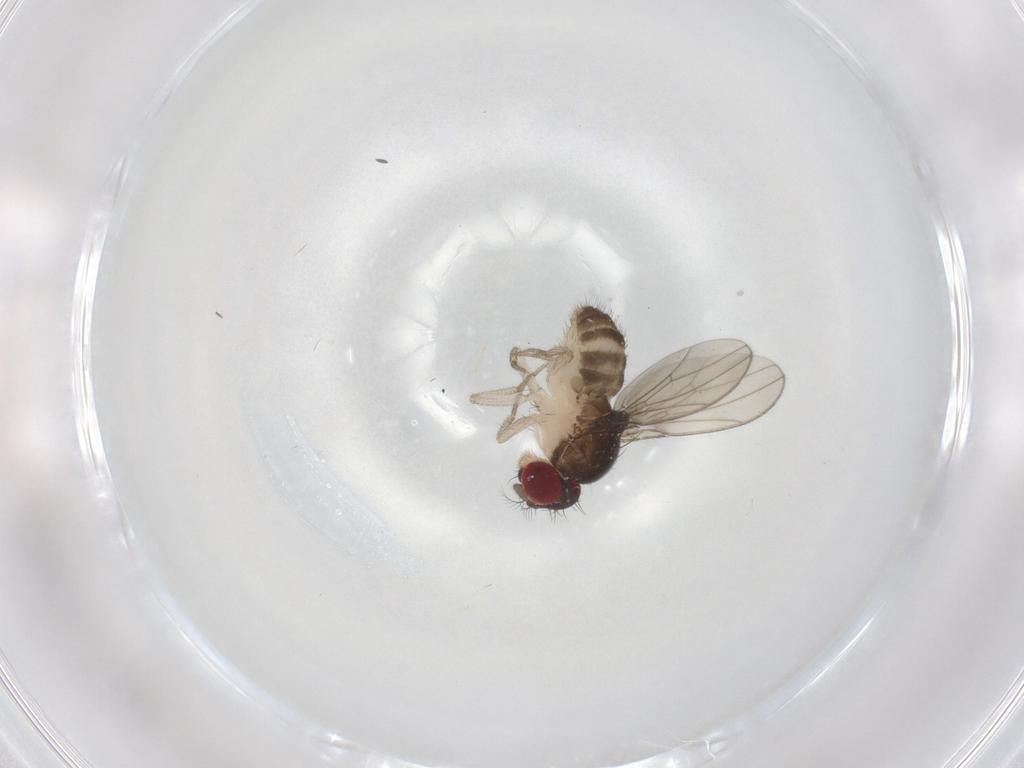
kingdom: Animalia
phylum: Arthropoda
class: Insecta
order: Diptera
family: Drosophilidae
